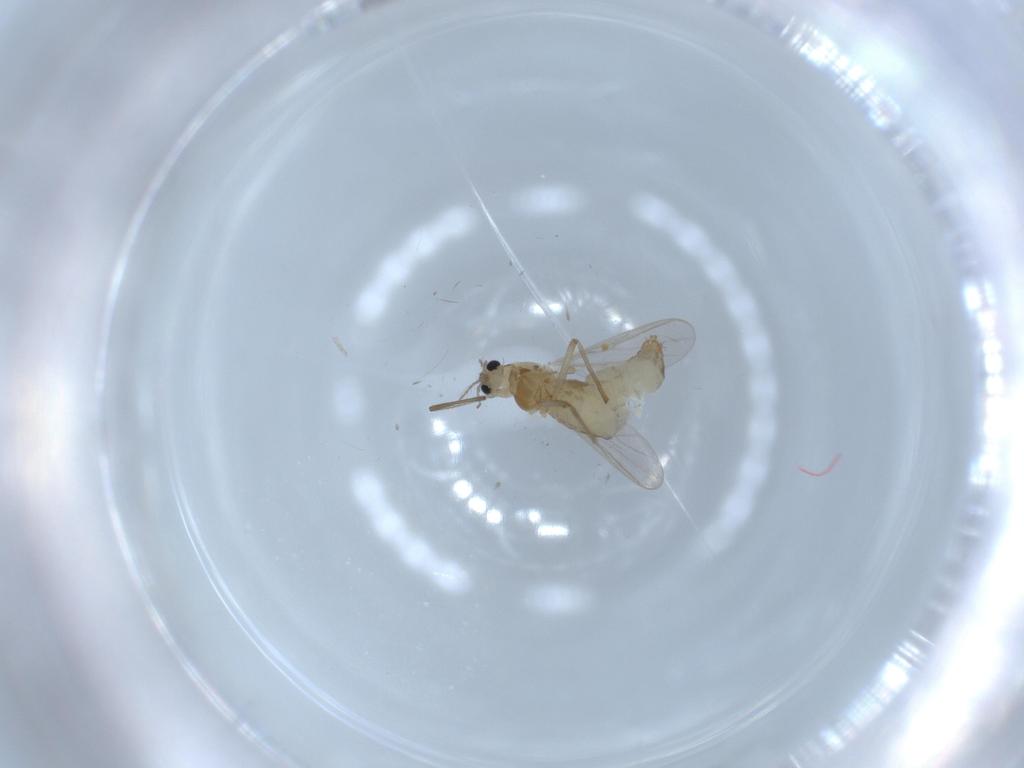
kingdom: Animalia
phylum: Arthropoda
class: Insecta
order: Diptera
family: Chironomidae
